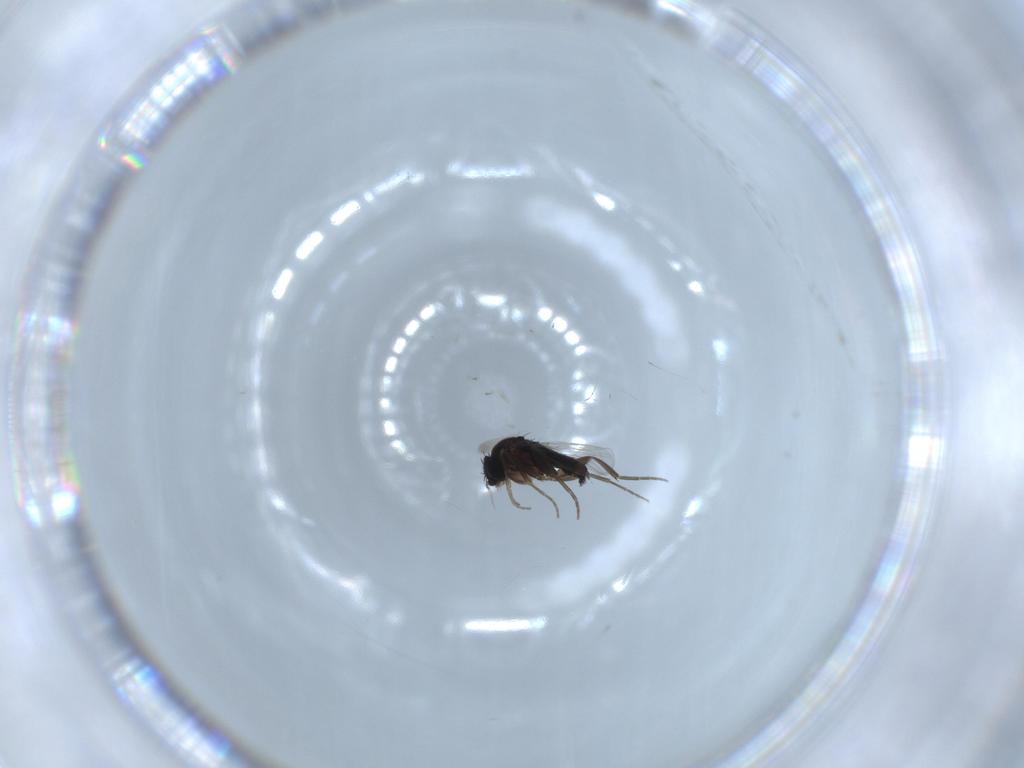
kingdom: Animalia
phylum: Arthropoda
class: Insecta
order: Diptera
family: Phoridae
